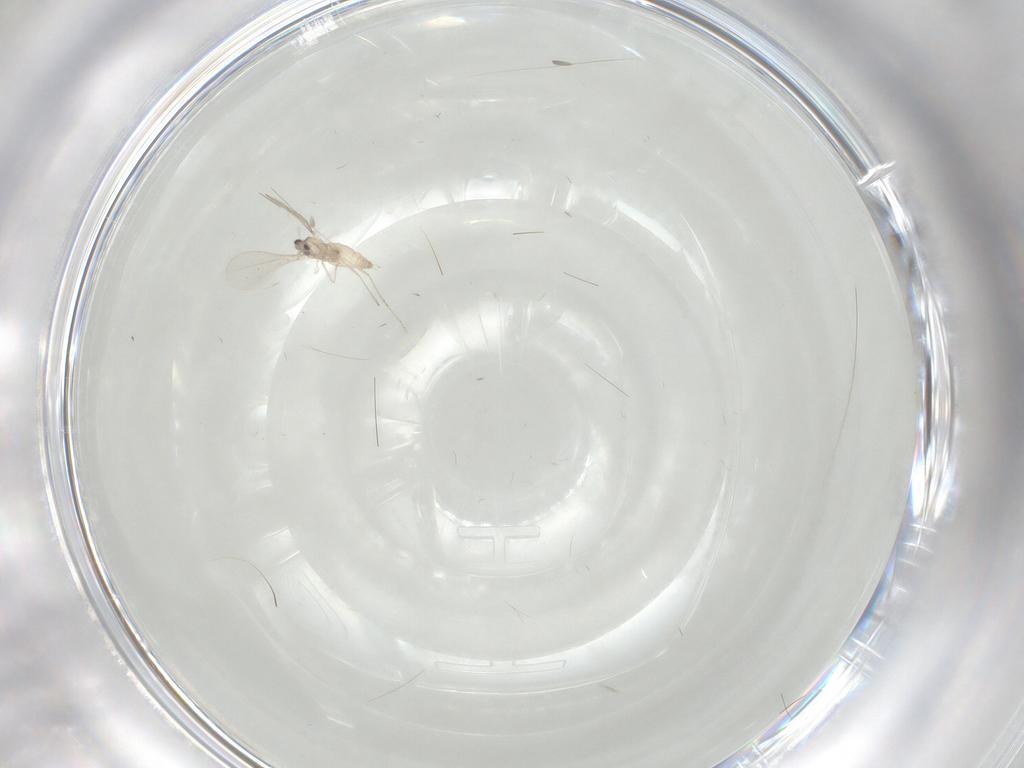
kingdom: Animalia
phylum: Arthropoda
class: Insecta
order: Diptera
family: Cecidomyiidae
